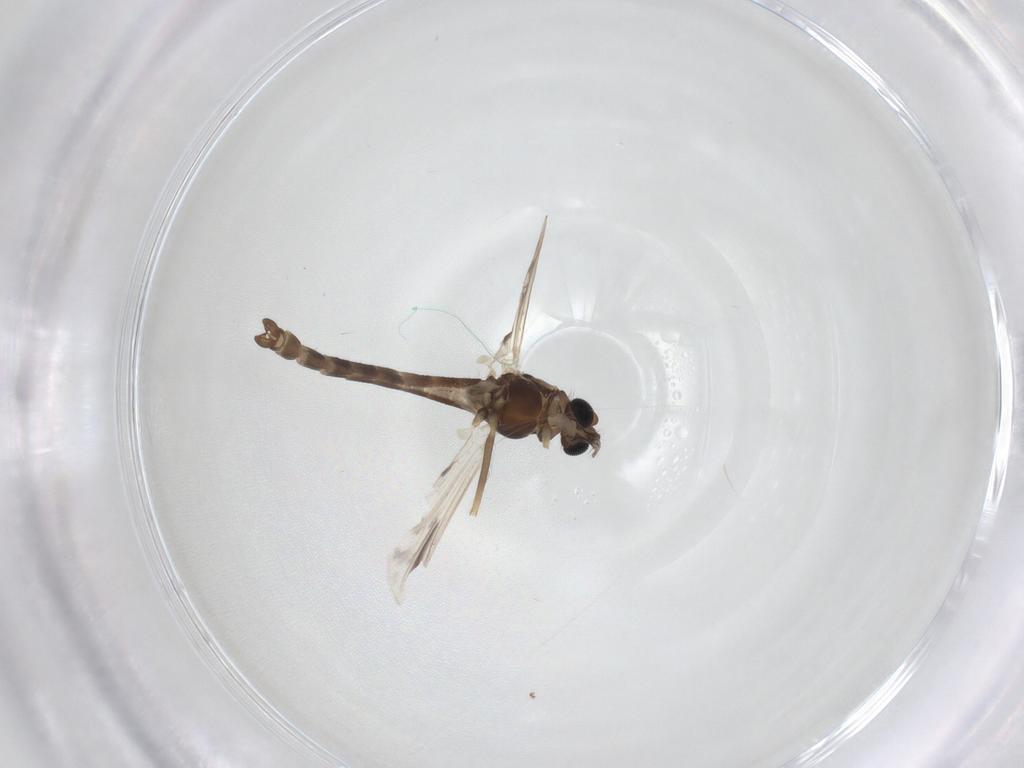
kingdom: Animalia
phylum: Arthropoda
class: Insecta
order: Diptera
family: Chironomidae
